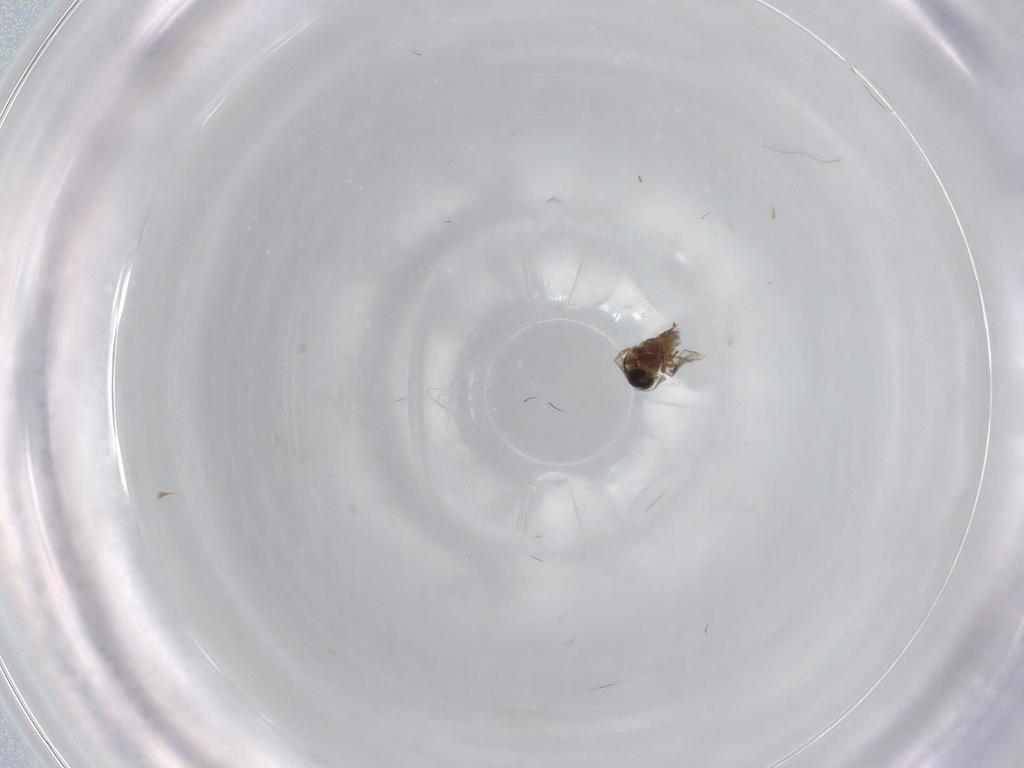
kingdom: Animalia
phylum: Arthropoda
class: Insecta
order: Diptera
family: Ceratopogonidae
